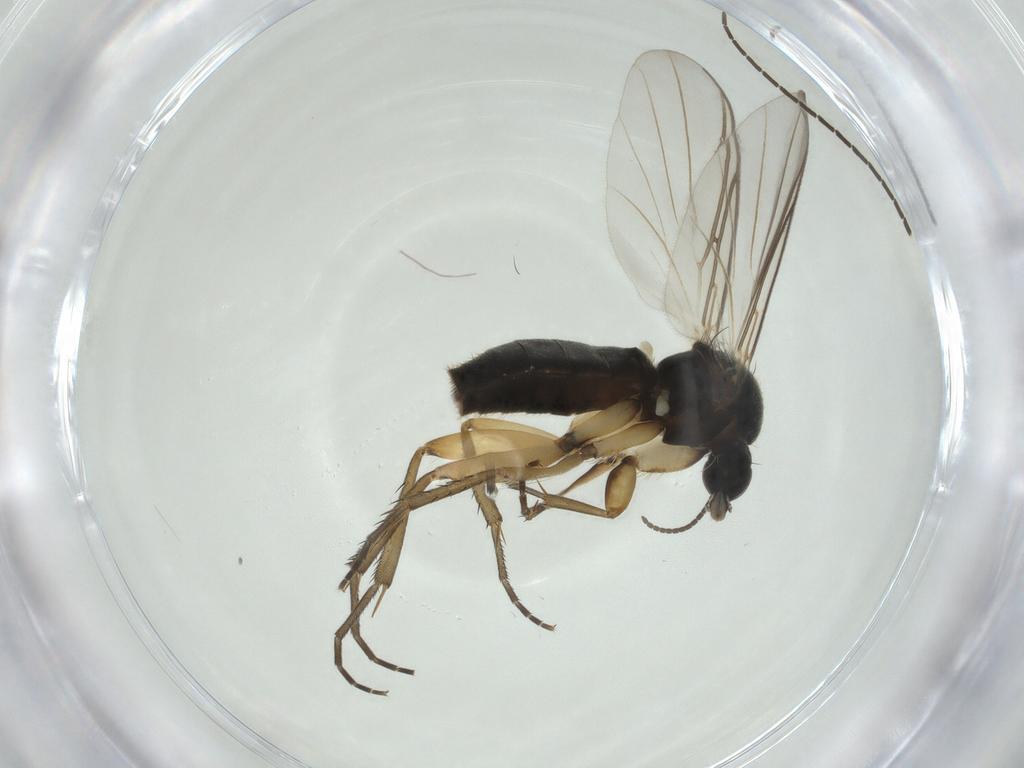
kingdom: Animalia
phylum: Arthropoda
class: Insecta
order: Diptera
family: Mycetophilidae
